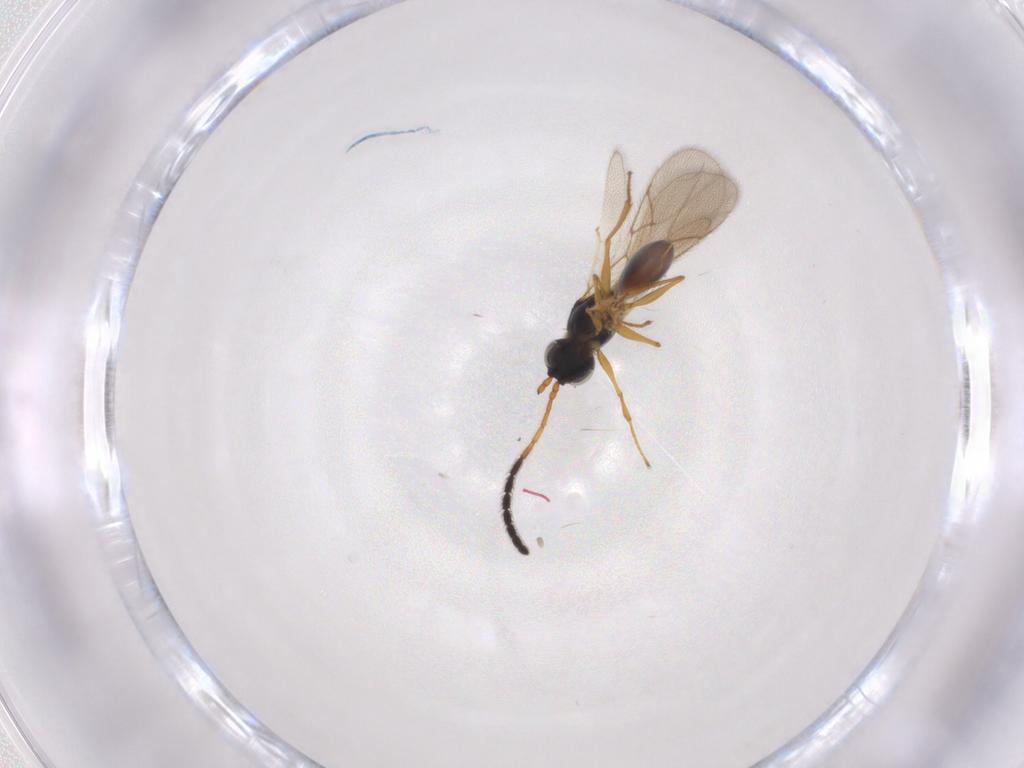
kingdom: Animalia
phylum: Arthropoda
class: Insecta
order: Hymenoptera
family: Figitidae
